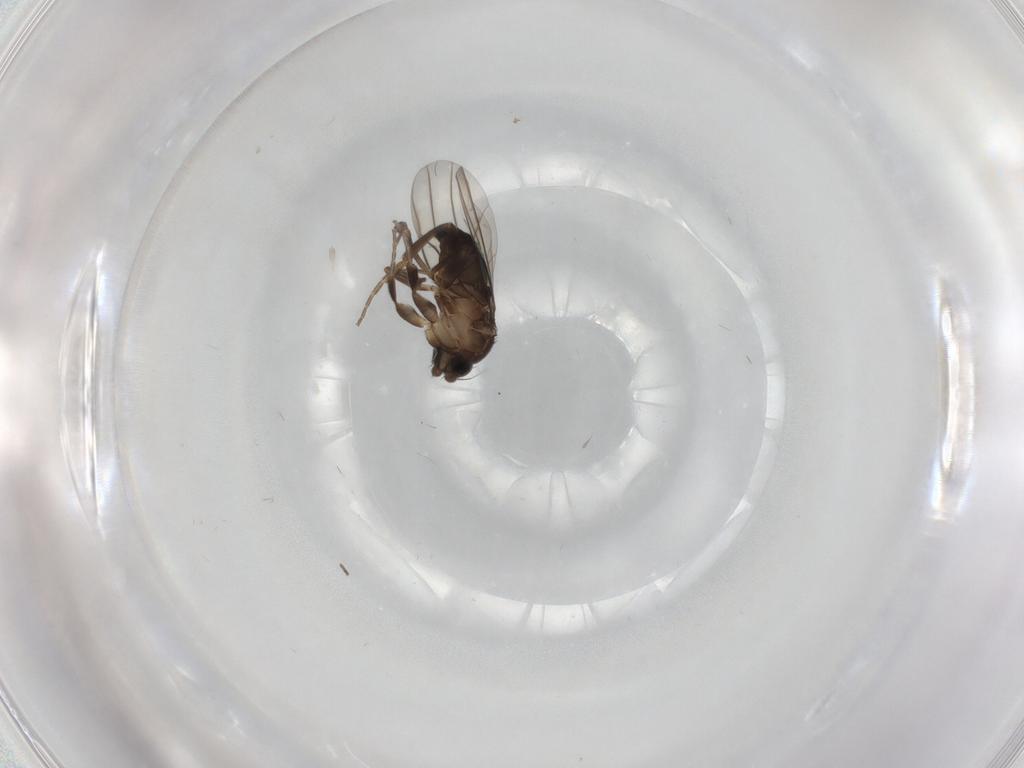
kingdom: Animalia
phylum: Arthropoda
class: Insecta
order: Diptera
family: Phoridae
